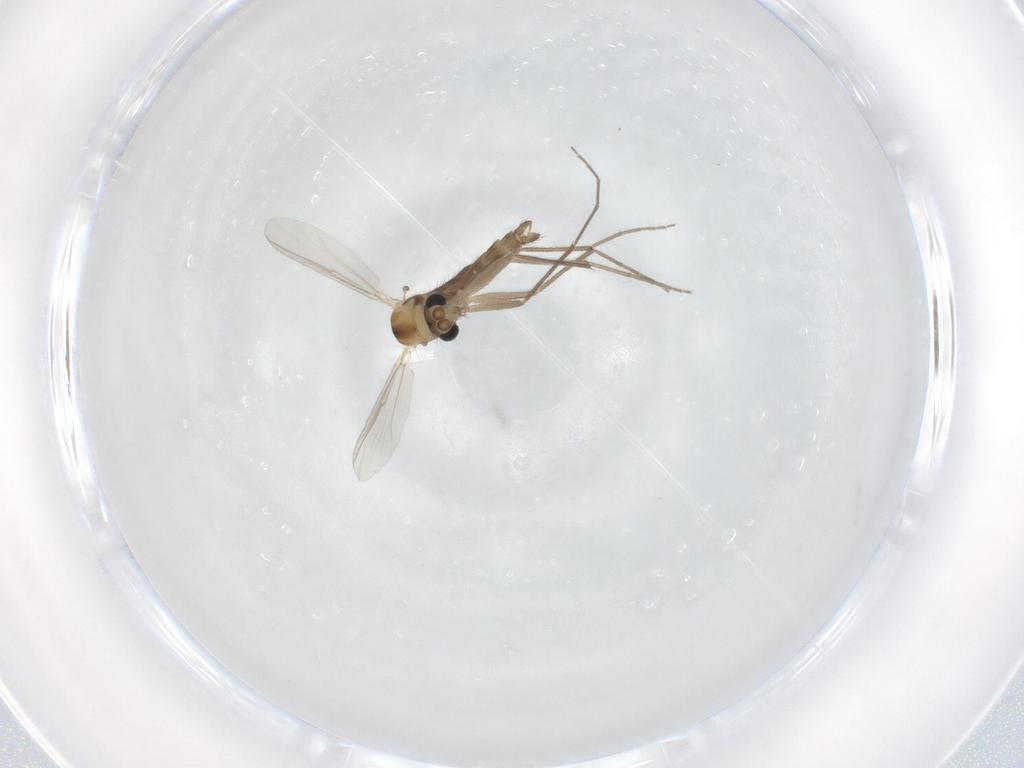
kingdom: Animalia
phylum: Arthropoda
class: Insecta
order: Diptera
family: Chironomidae
